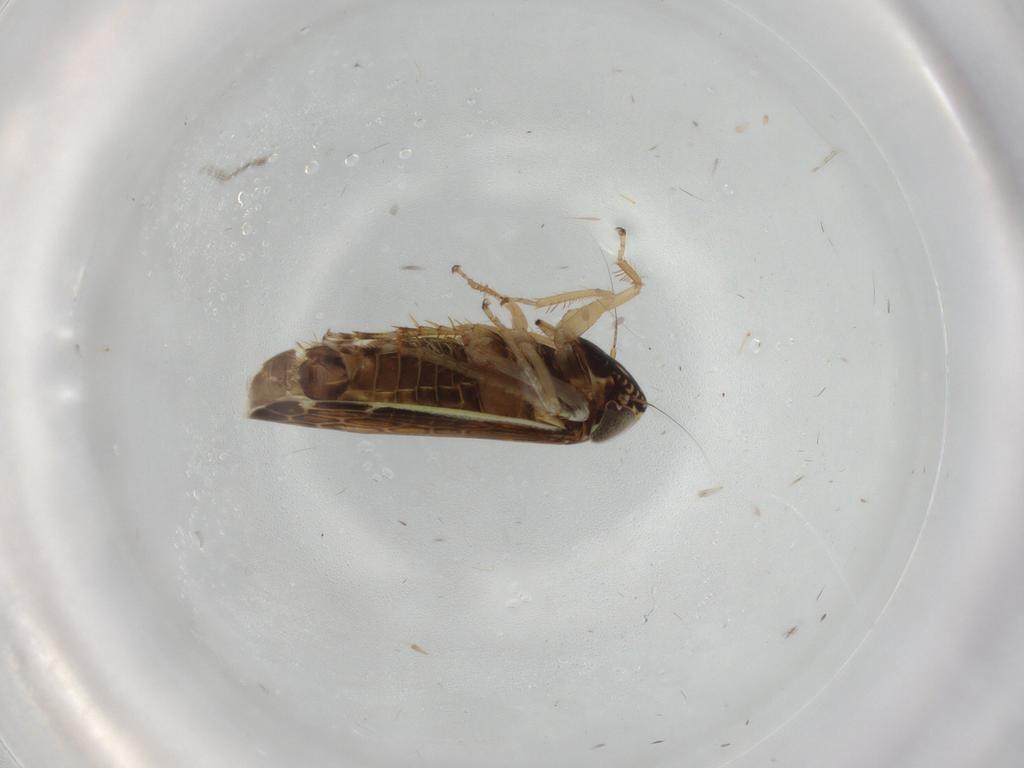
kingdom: Animalia
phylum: Arthropoda
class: Insecta
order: Hemiptera
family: Cicadellidae
